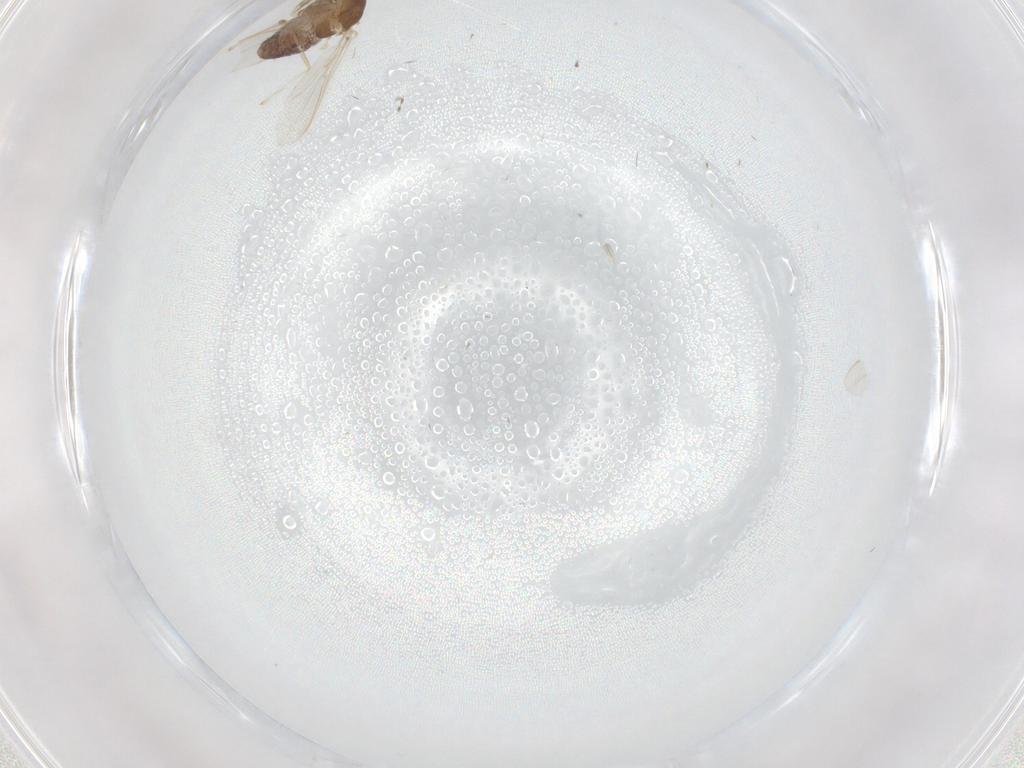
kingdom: Animalia
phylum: Arthropoda
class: Insecta
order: Diptera
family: Chironomidae
